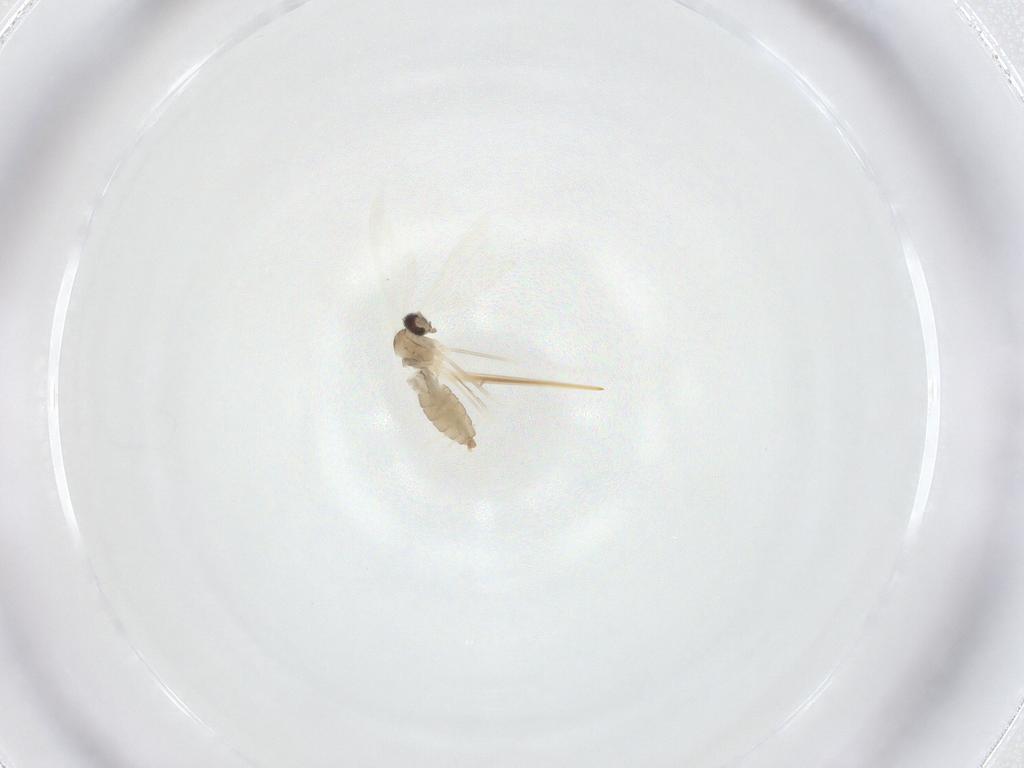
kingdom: Animalia
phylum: Arthropoda
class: Insecta
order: Diptera
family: Cecidomyiidae
